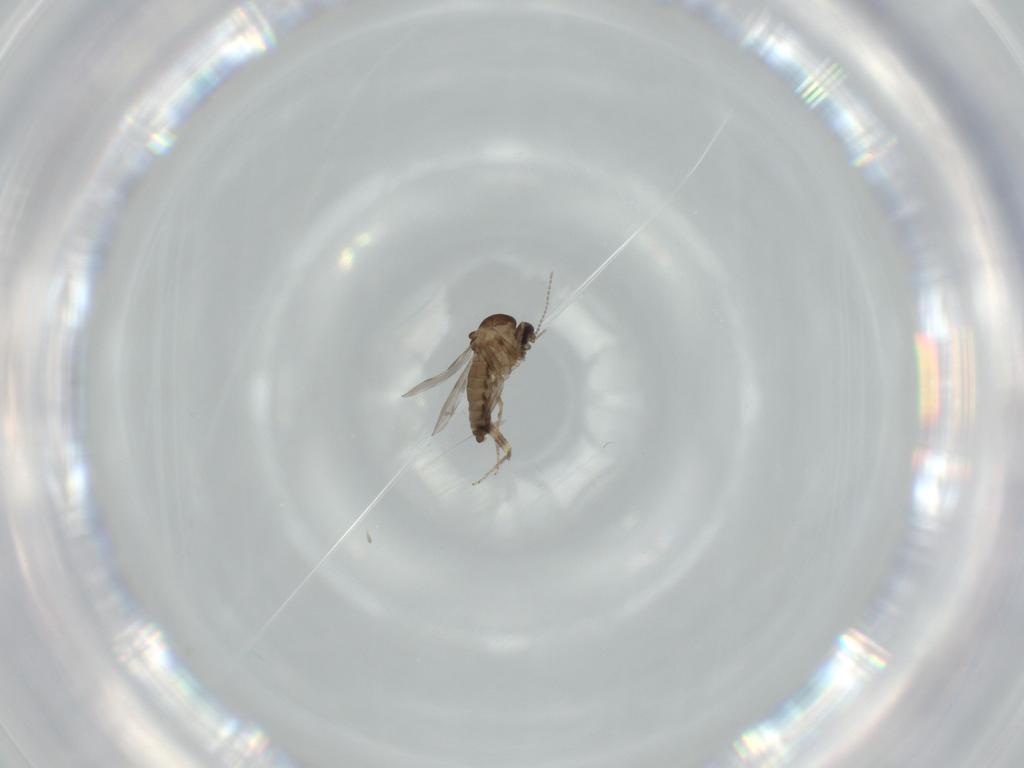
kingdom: Animalia
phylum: Arthropoda
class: Insecta
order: Diptera
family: Ceratopogonidae
